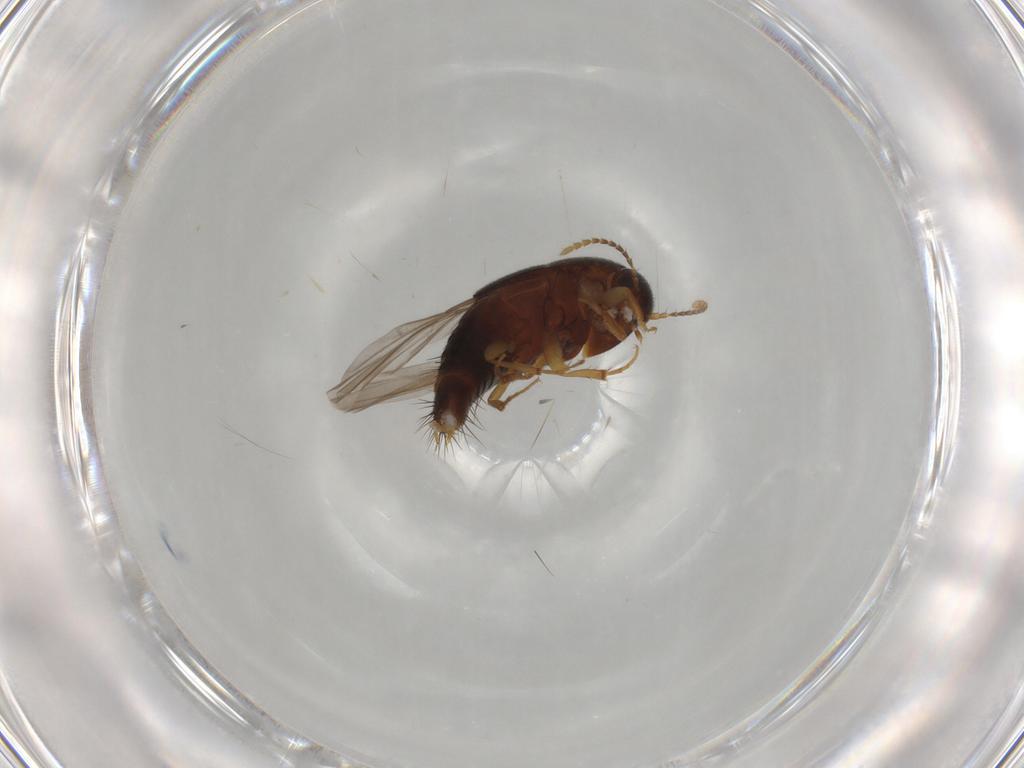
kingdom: Animalia
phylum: Arthropoda
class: Insecta
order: Coleoptera
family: Staphylinidae
